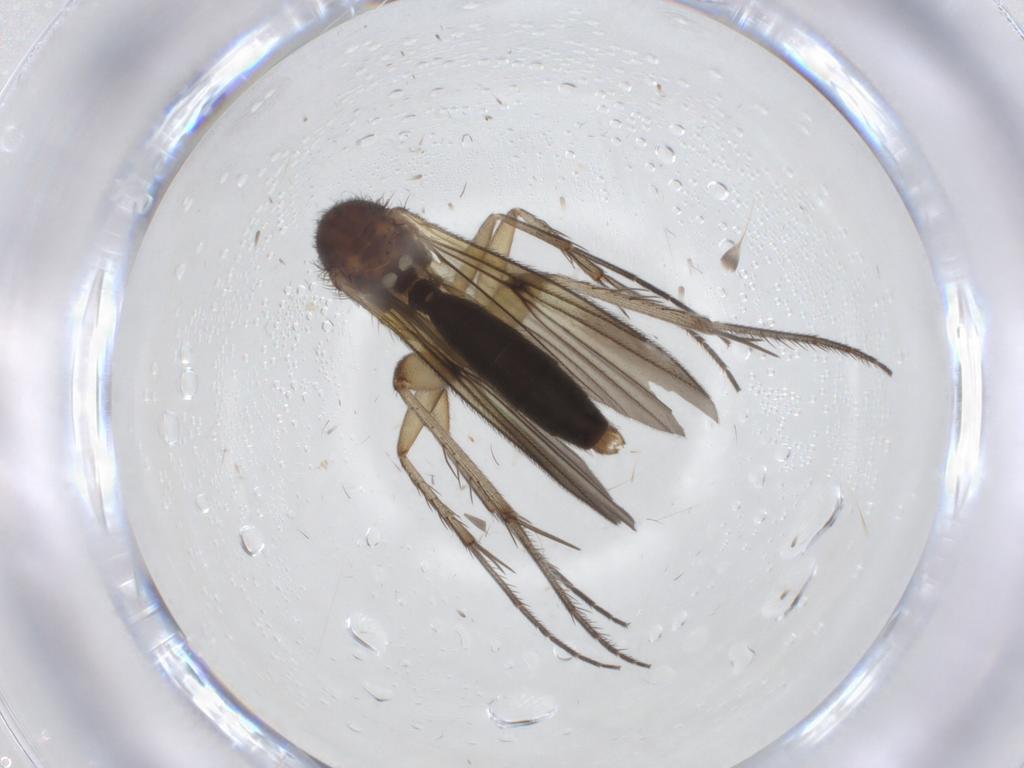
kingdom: Animalia
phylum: Arthropoda
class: Insecta
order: Diptera
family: Phoridae
